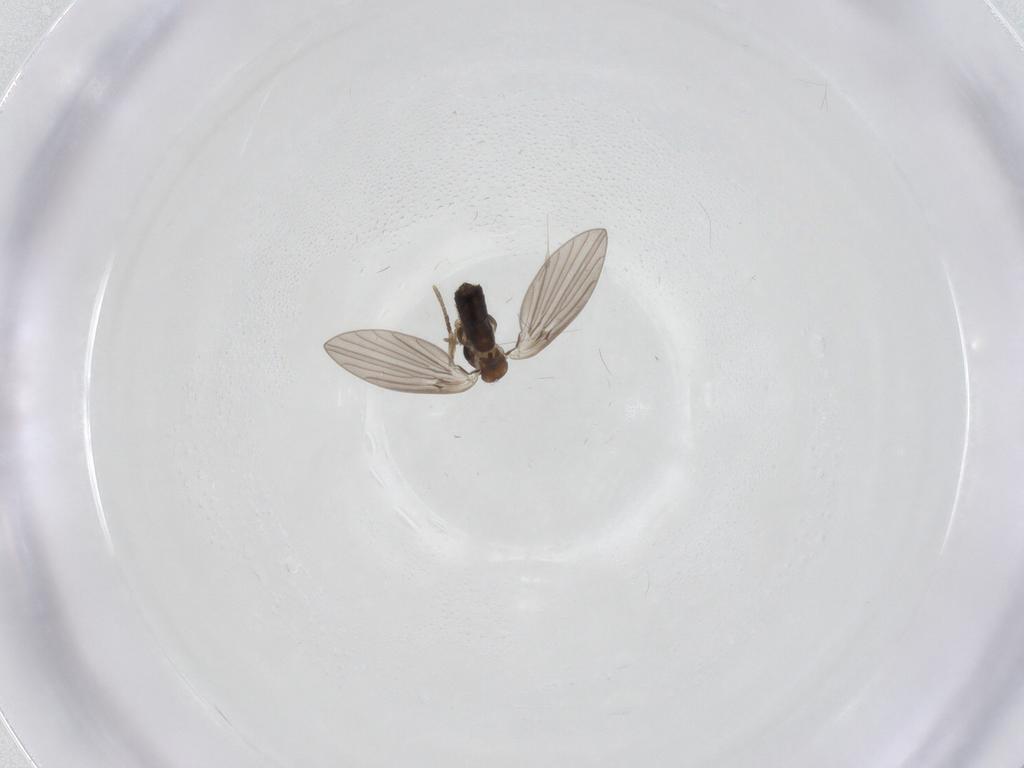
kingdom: Animalia
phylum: Arthropoda
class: Insecta
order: Diptera
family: Psychodidae
